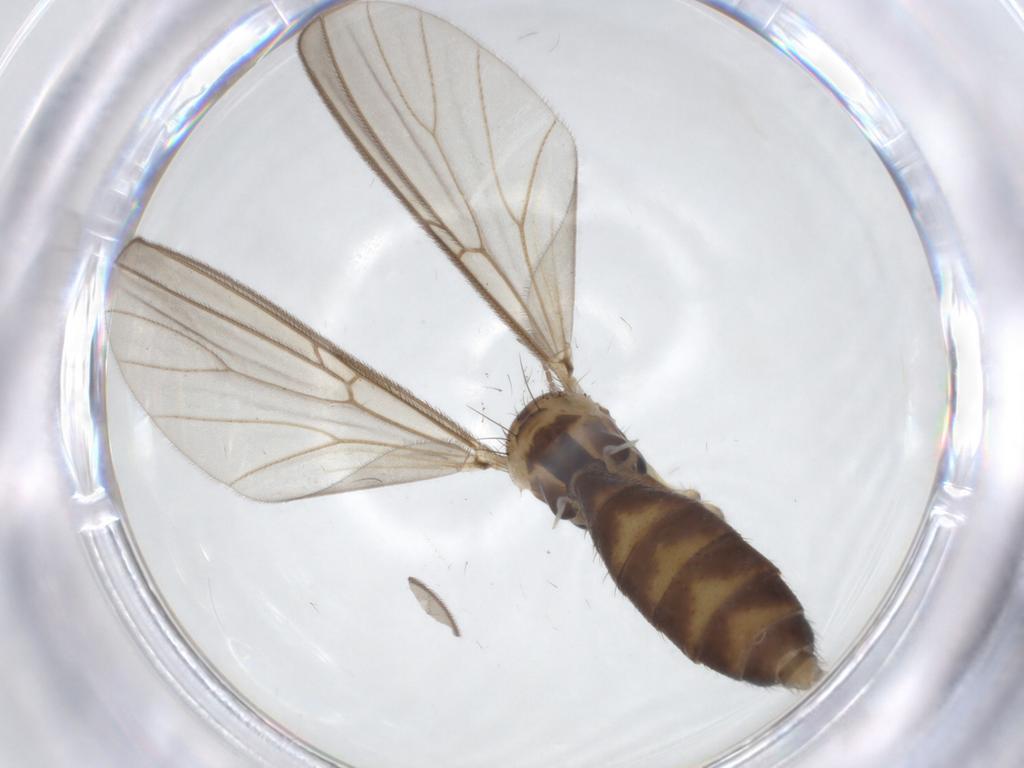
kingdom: Animalia
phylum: Arthropoda
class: Insecta
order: Diptera
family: Mycetophilidae
